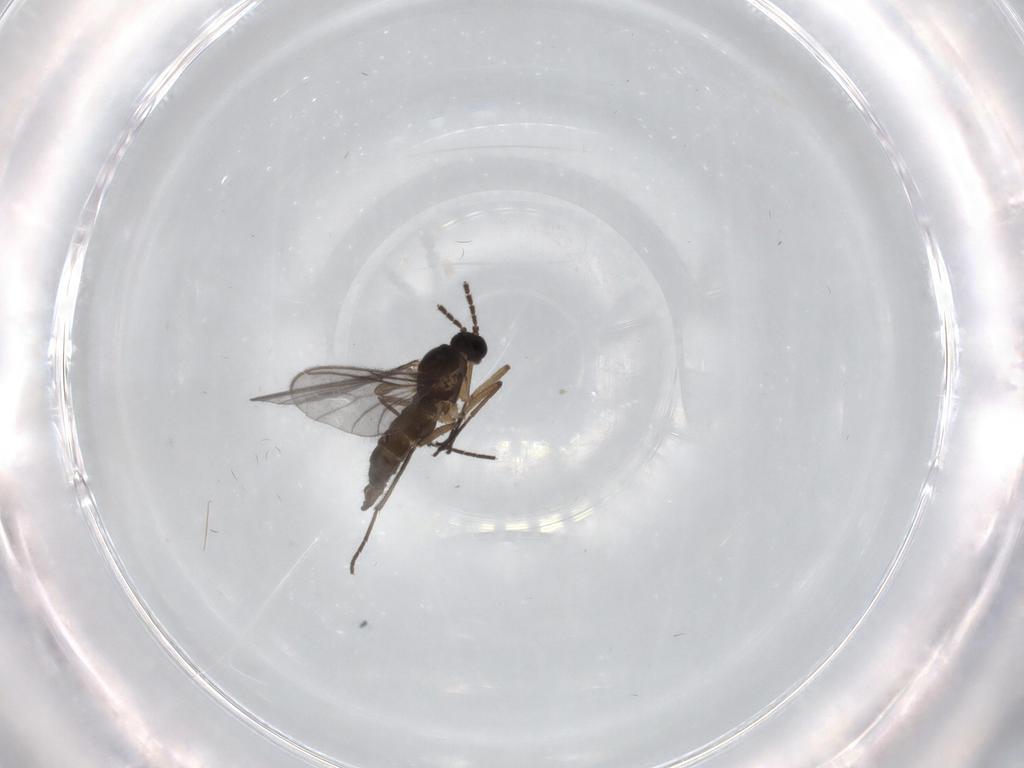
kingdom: Animalia
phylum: Arthropoda
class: Insecta
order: Diptera
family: Sciaridae
